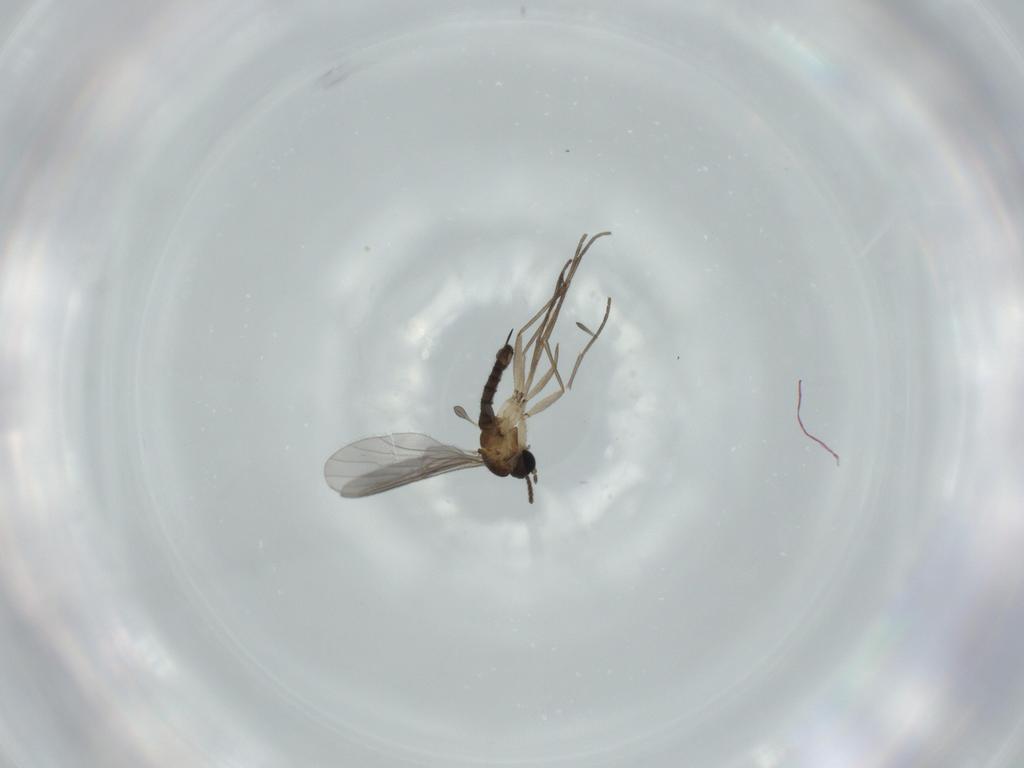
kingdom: Animalia
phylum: Arthropoda
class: Insecta
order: Diptera
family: Sciaridae
